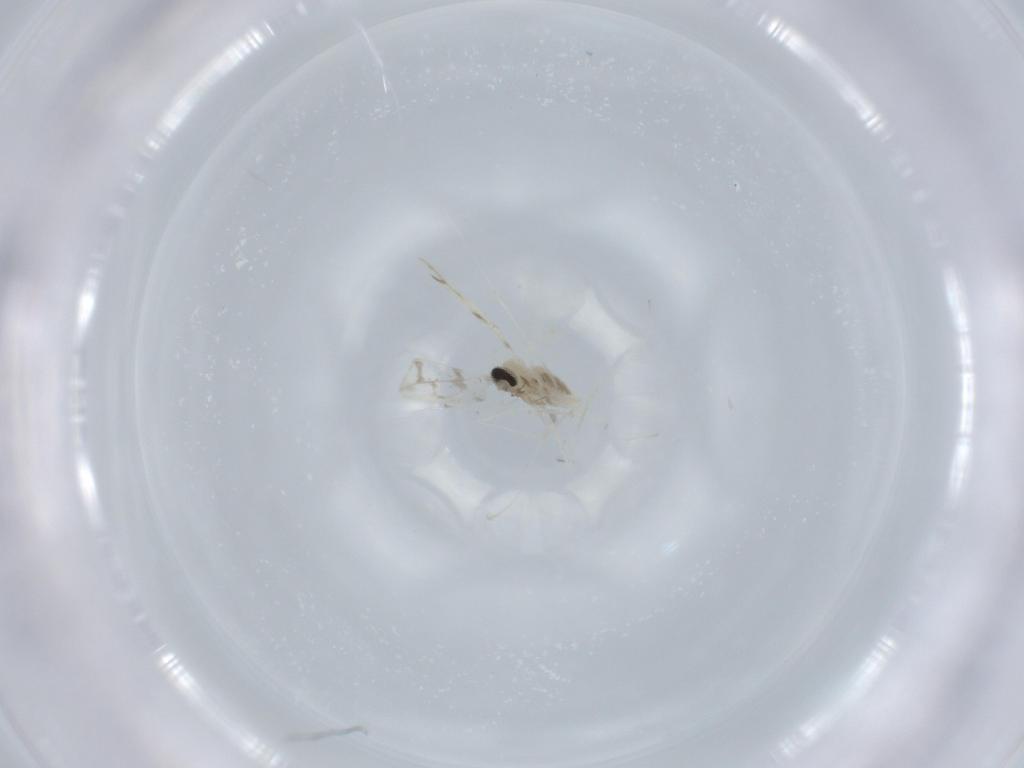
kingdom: Animalia
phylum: Arthropoda
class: Insecta
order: Diptera
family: Cecidomyiidae
